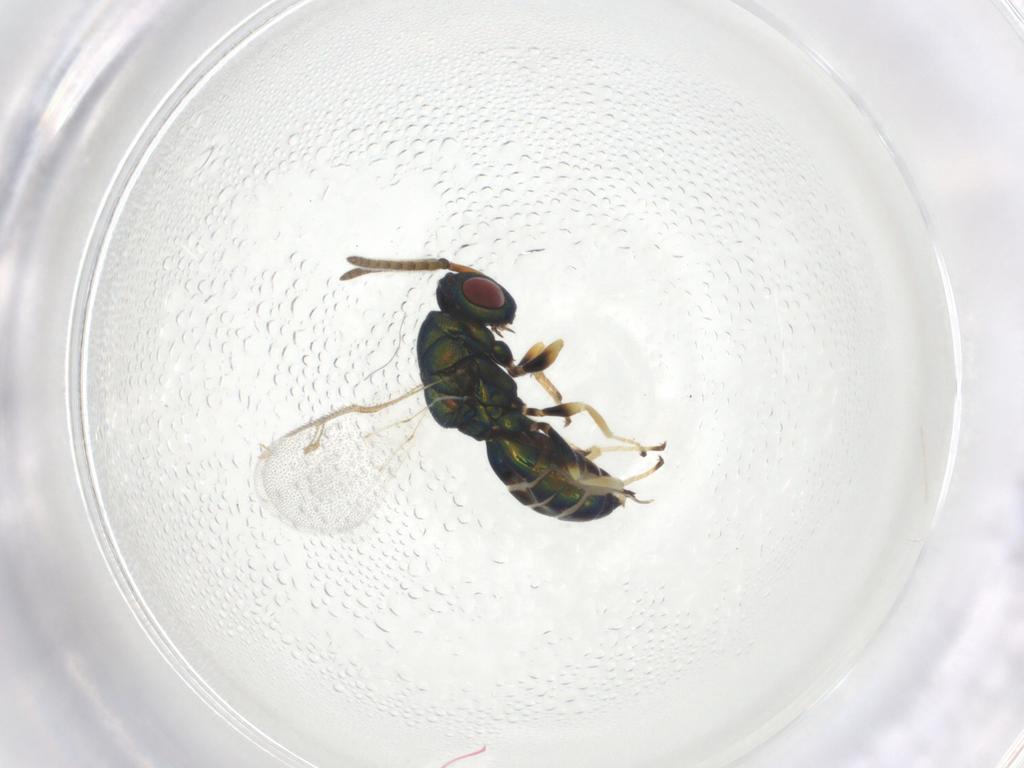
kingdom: Animalia
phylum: Arthropoda
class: Insecta
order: Hymenoptera
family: Pteromalidae
